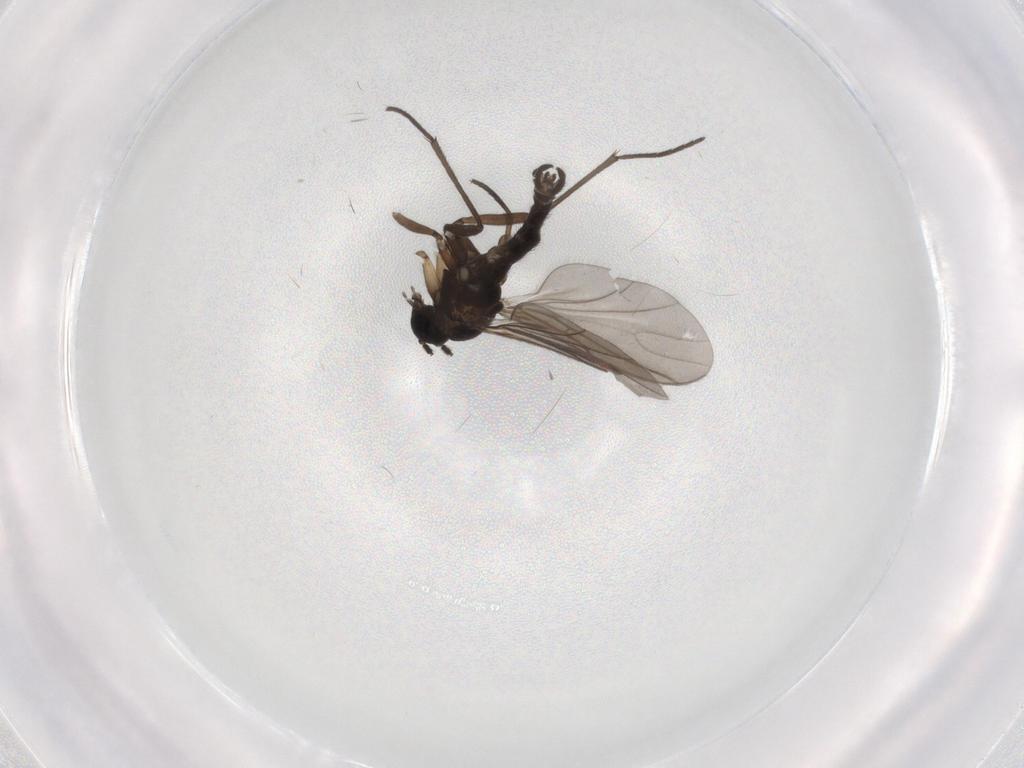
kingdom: Animalia
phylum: Arthropoda
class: Insecta
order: Diptera
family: Sciaridae
